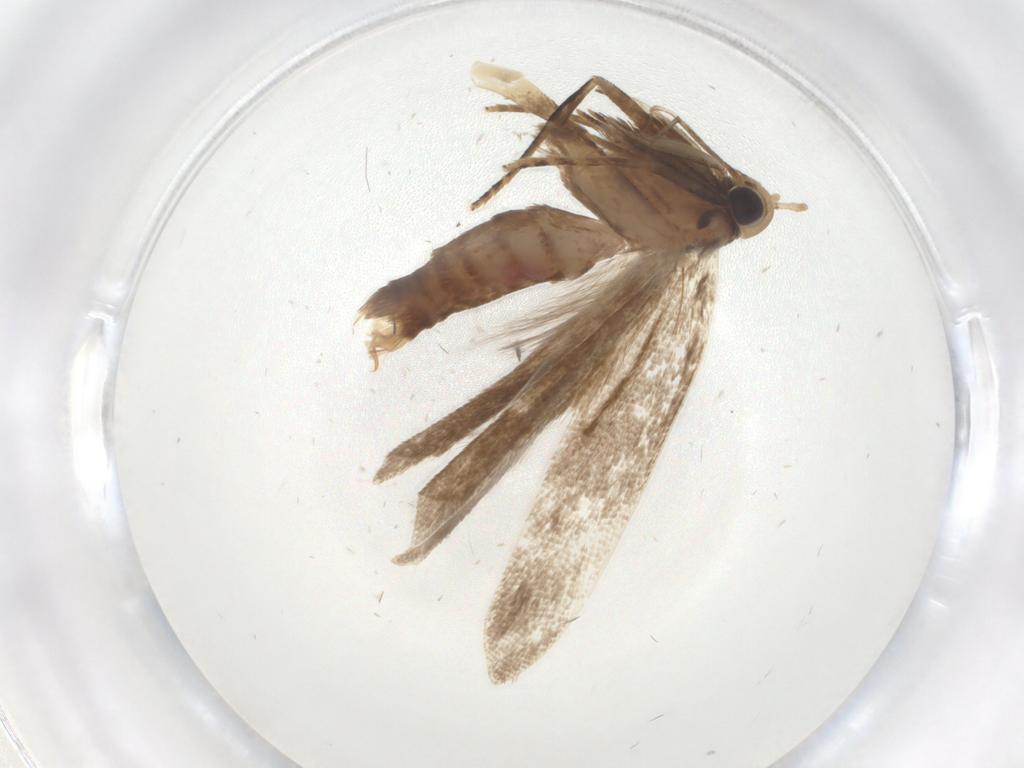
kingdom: Animalia
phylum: Arthropoda
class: Insecta
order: Lepidoptera
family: Gelechiidae
